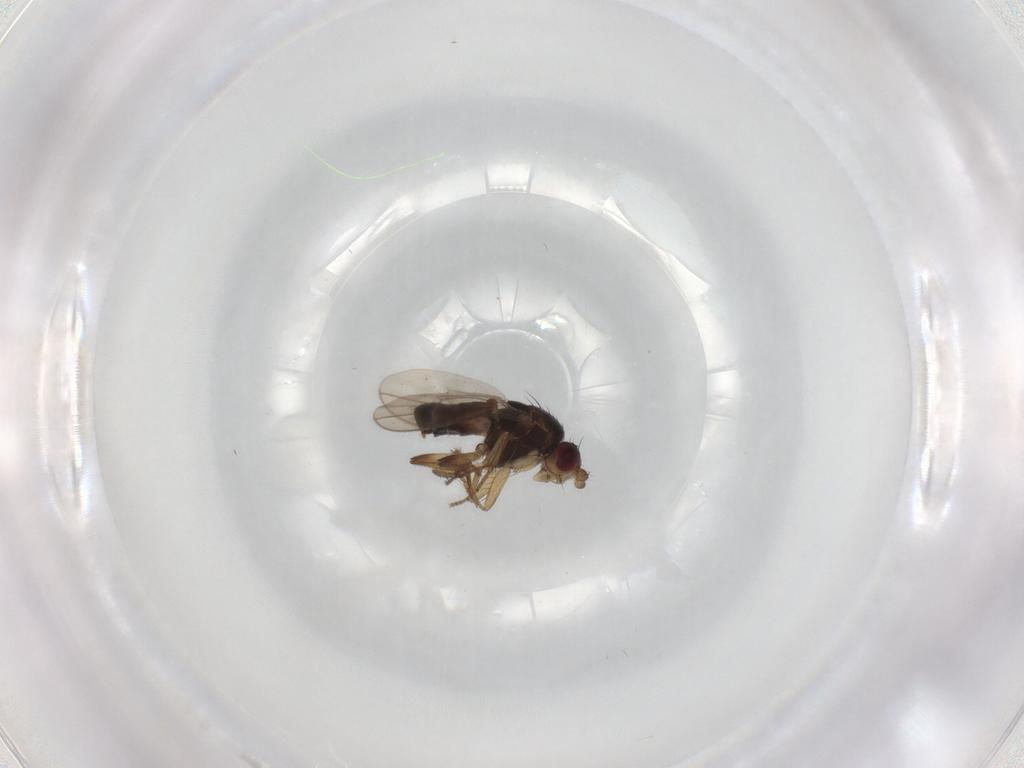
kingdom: Animalia
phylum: Arthropoda
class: Insecta
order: Diptera
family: Sphaeroceridae
